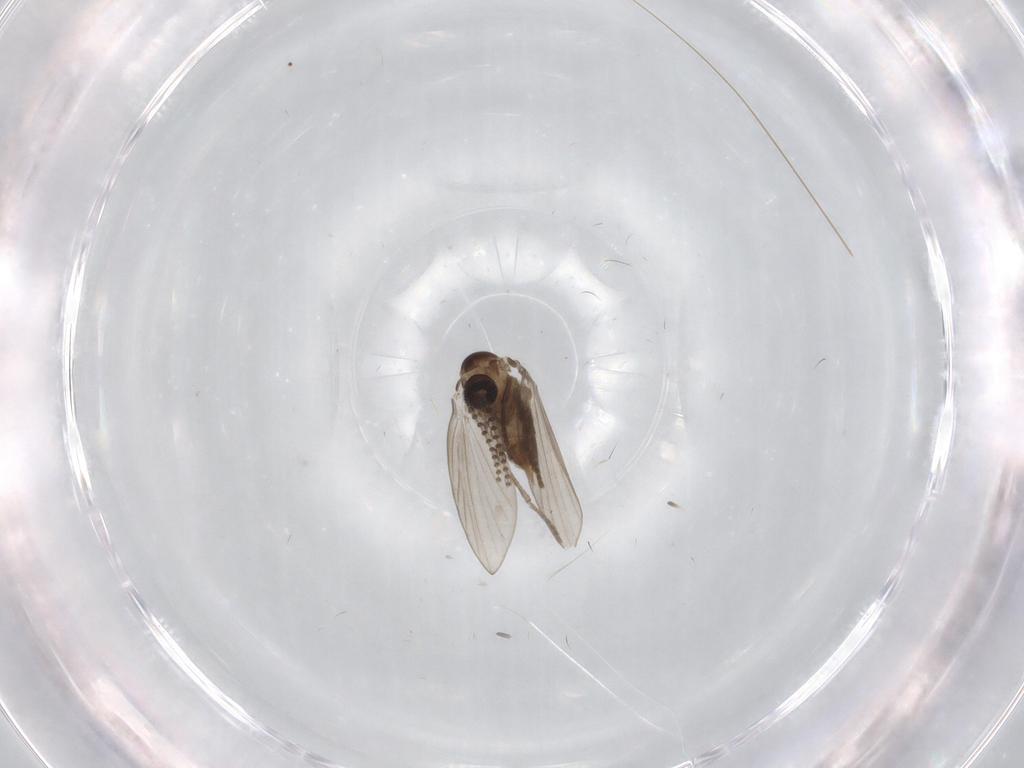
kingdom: Animalia
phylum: Arthropoda
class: Insecta
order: Diptera
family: Psychodidae
